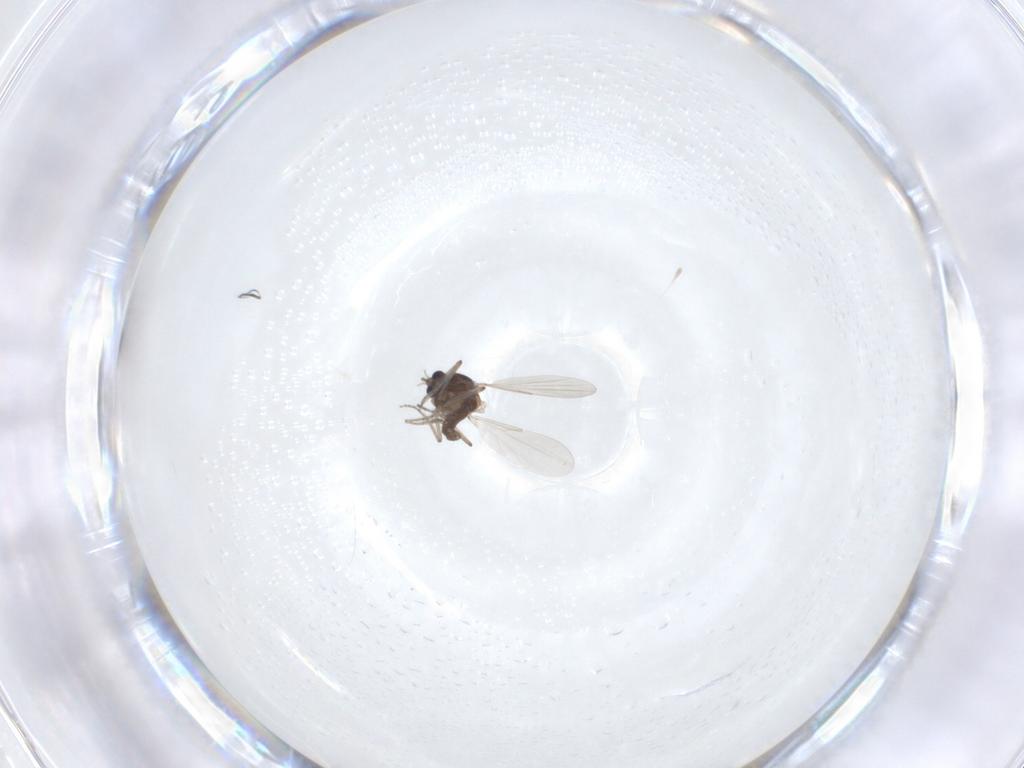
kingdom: Animalia
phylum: Arthropoda
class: Insecta
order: Diptera
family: Ceratopogonidae
